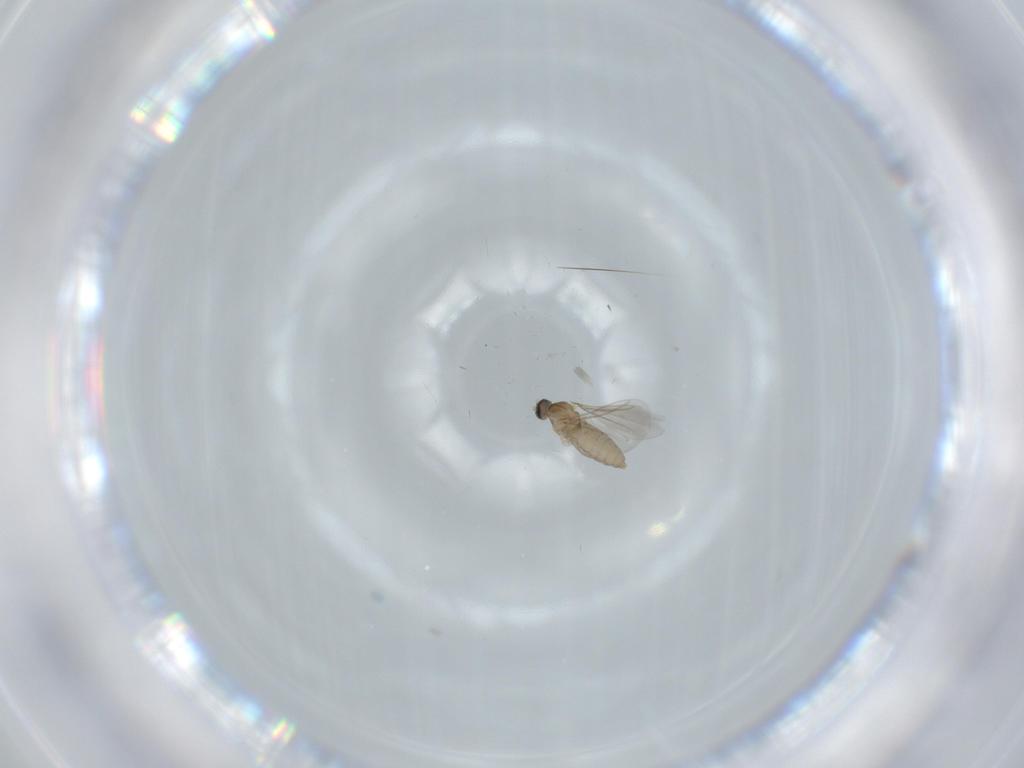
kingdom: Animalia
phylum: Arthropoda
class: Insecta
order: Diptera
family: Cecidomyiidae
